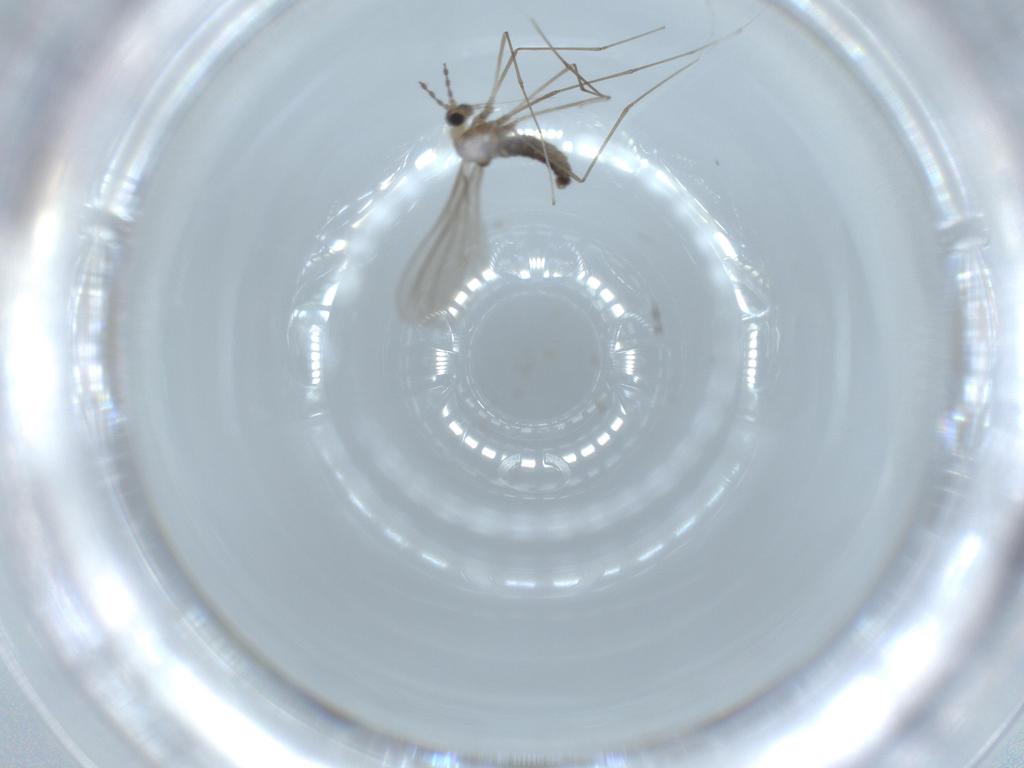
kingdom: Animalia
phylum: Arthropoda
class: Insecta
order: Diptera
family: Cecidomyiidae
